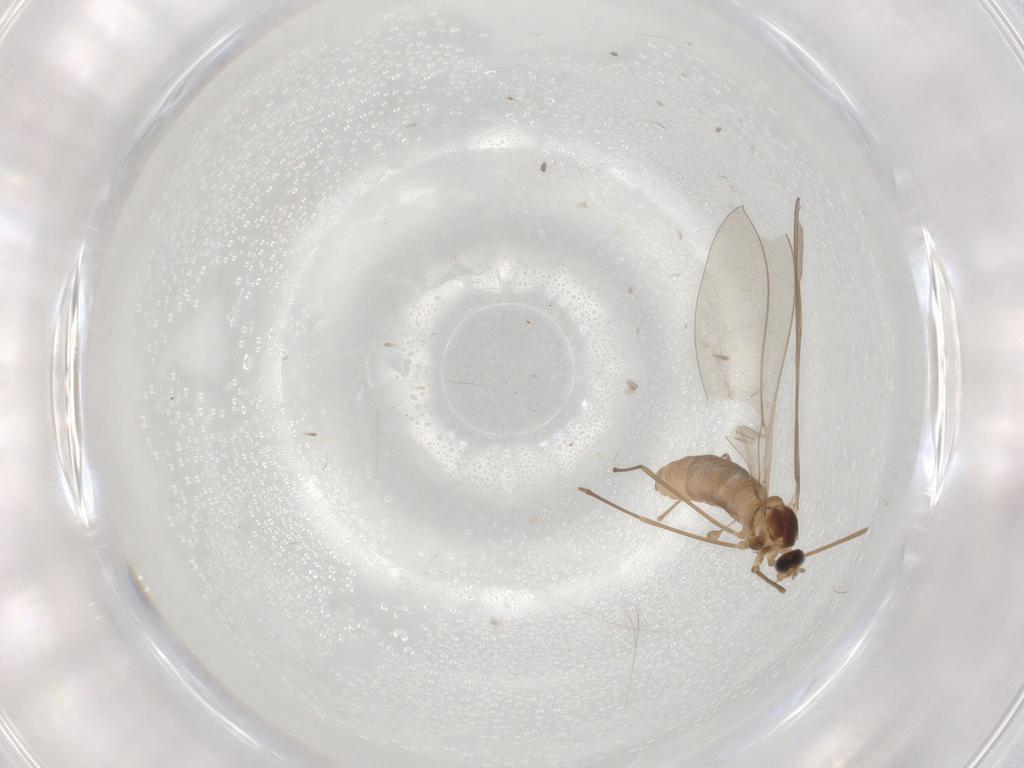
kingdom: Animalia
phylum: Arthropoda
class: Insecta
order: Diptera
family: Cecidomyiidae
